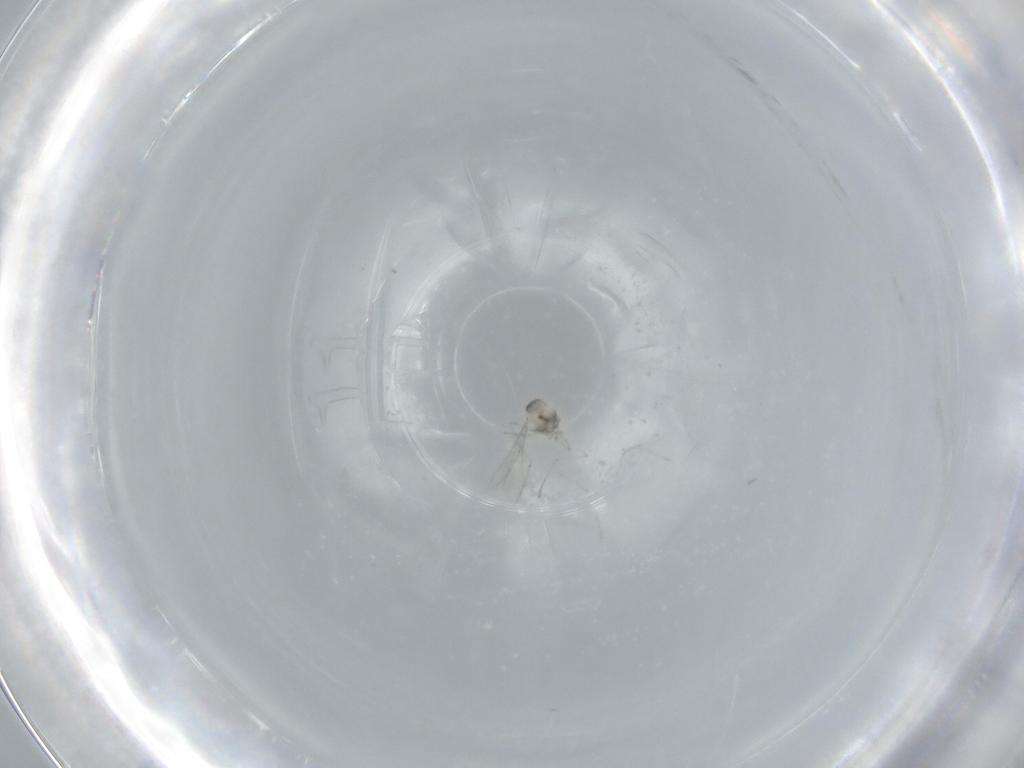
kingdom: Animalia
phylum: Arthropoda
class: Insecta
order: Diptera
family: Cecidomyiidae
